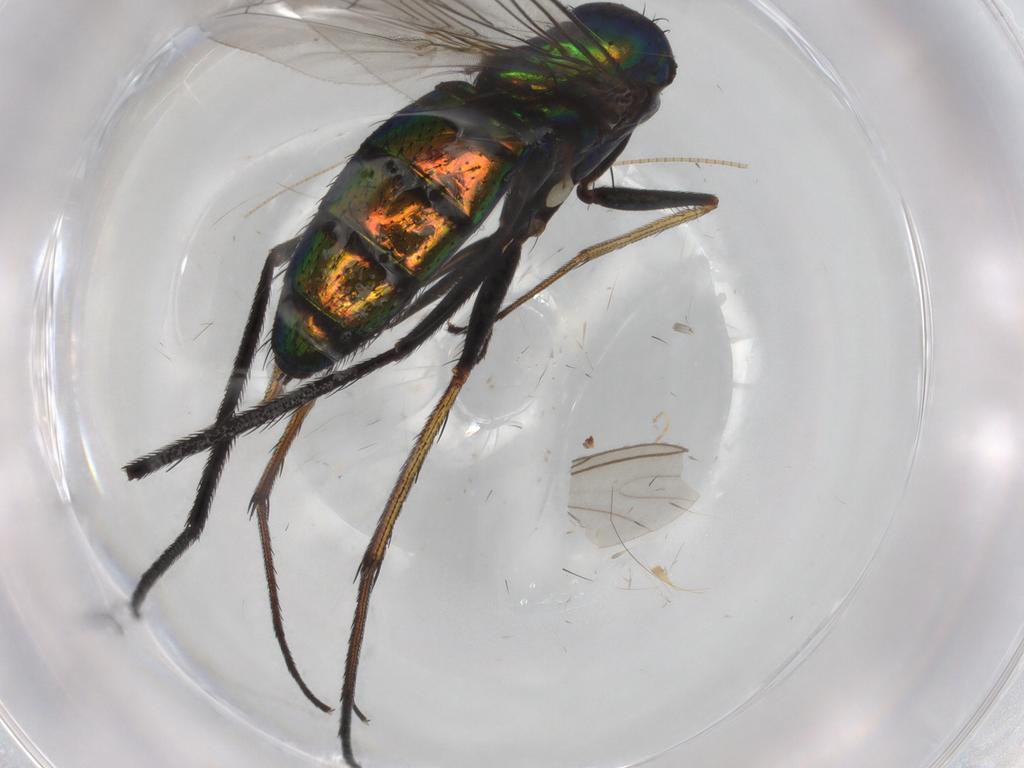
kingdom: Animalia
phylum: Arthropoda
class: Insecta
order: Diptera
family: Dolichopodidae
